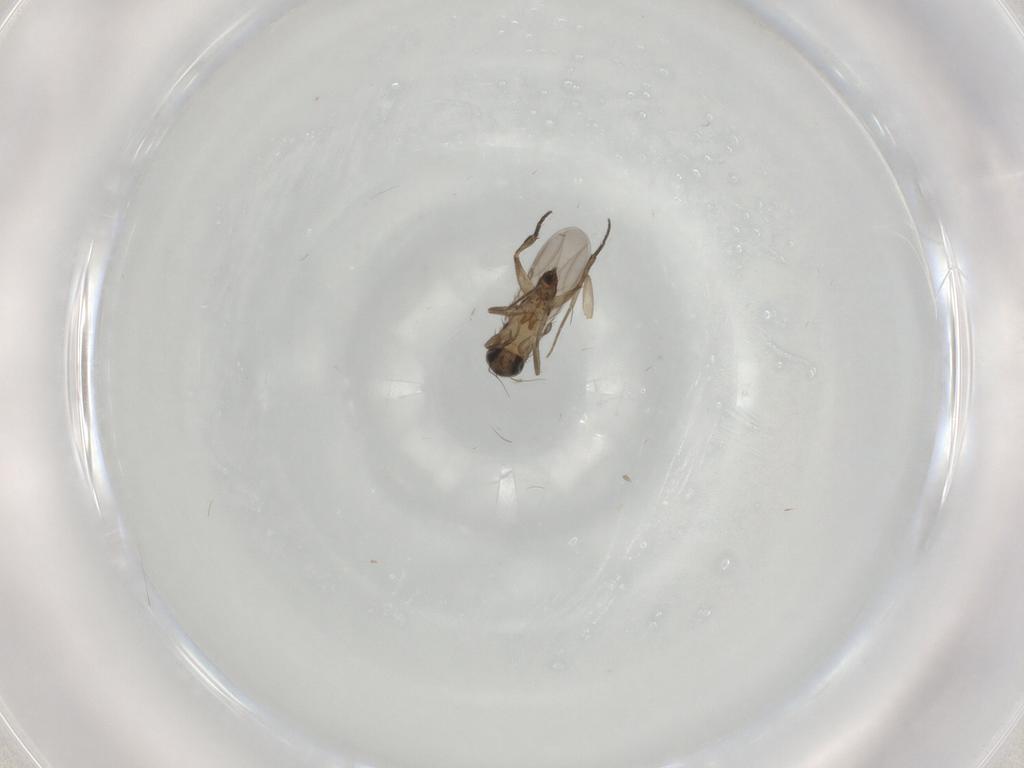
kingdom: Animalia
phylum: Arthropoda
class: Insecta
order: Diptera
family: Phoridae
